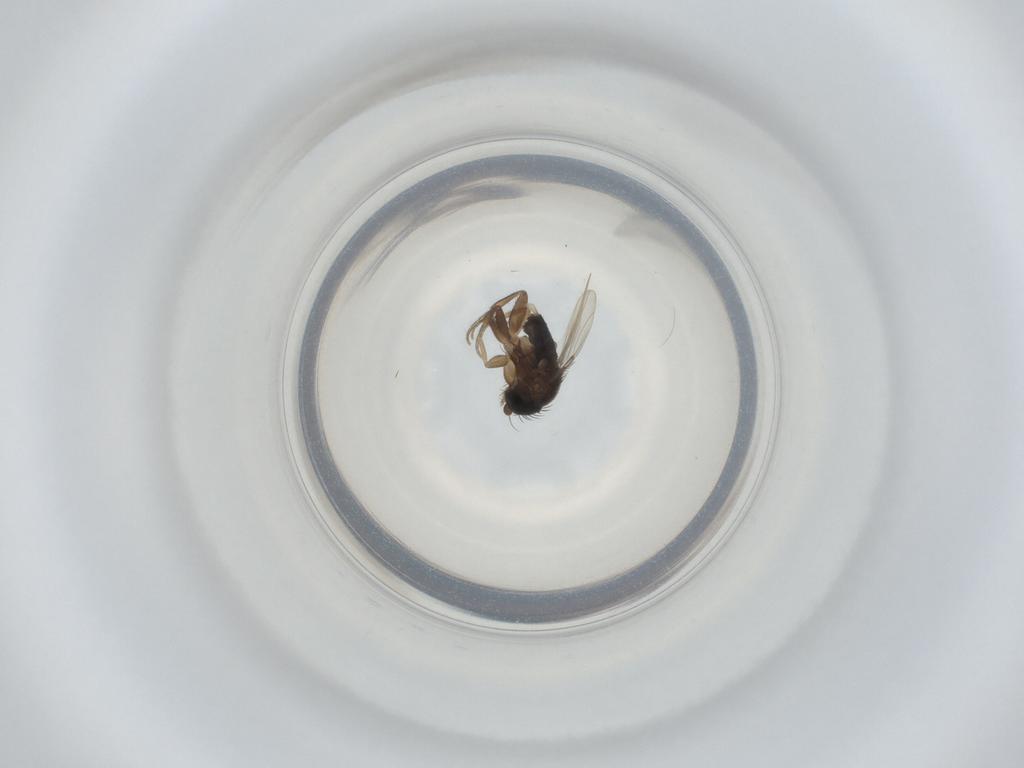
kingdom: Animalia
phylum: Arthropoda
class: Insecta
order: Diptera
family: Phoridae
